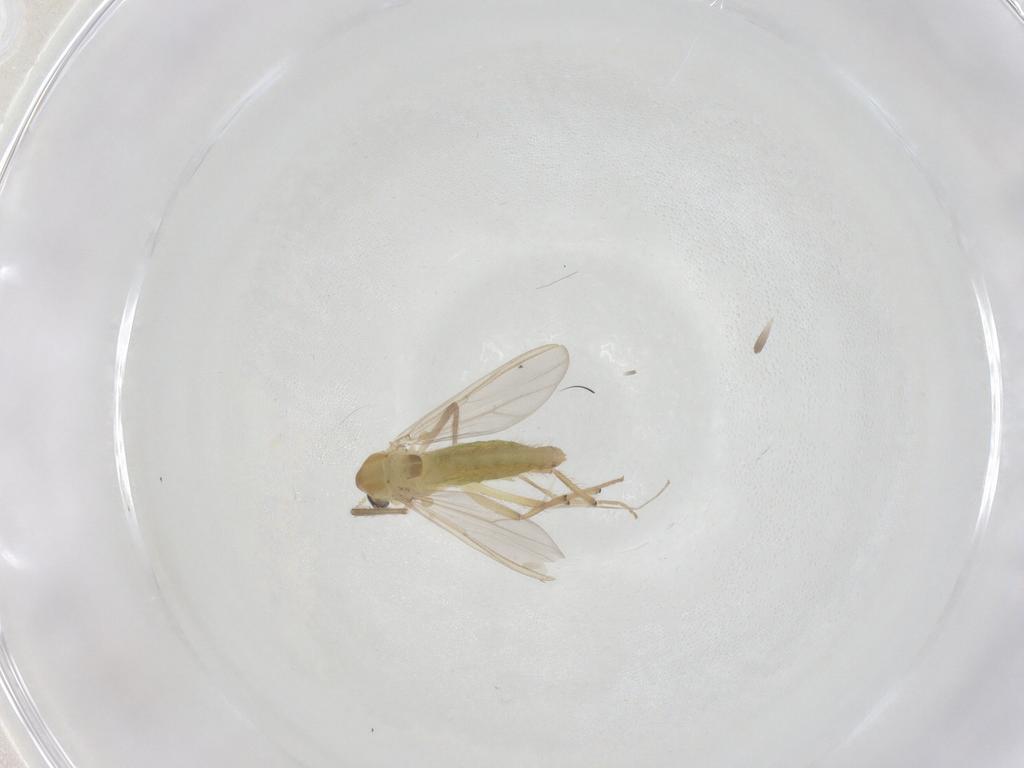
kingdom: Animalia
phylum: Arthropoda
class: Insecta
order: Diptera
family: Chironomidae
